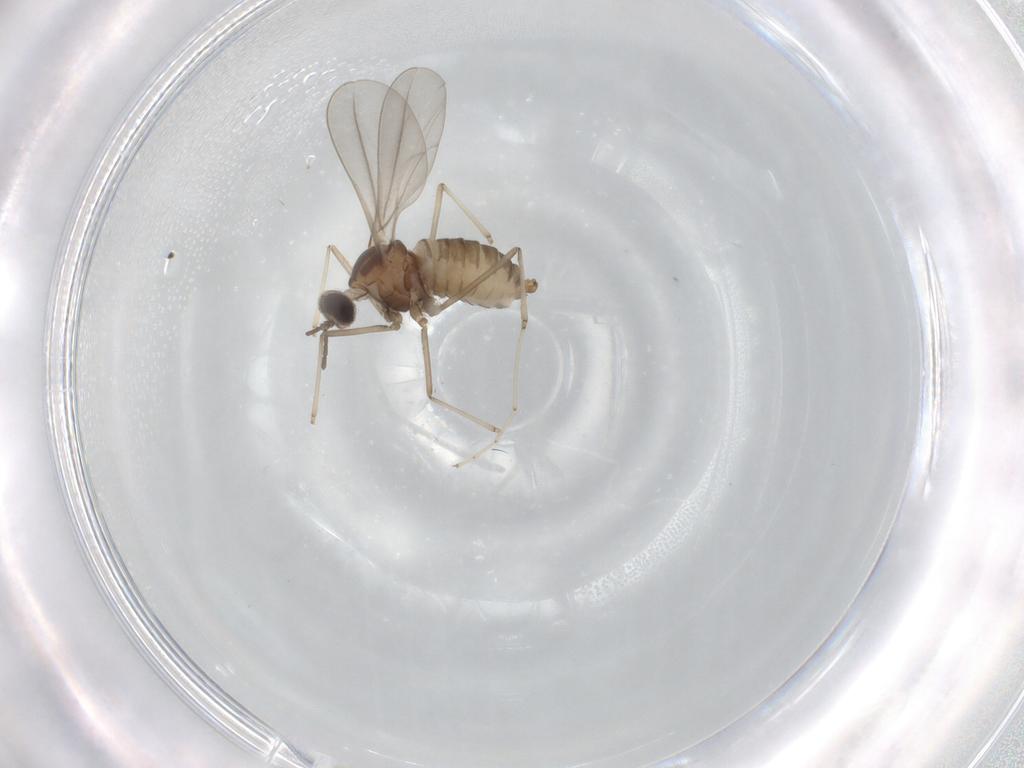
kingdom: Animalia
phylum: Arthropoda
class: Insecta
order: Diptera
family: Cecidomyiidae
